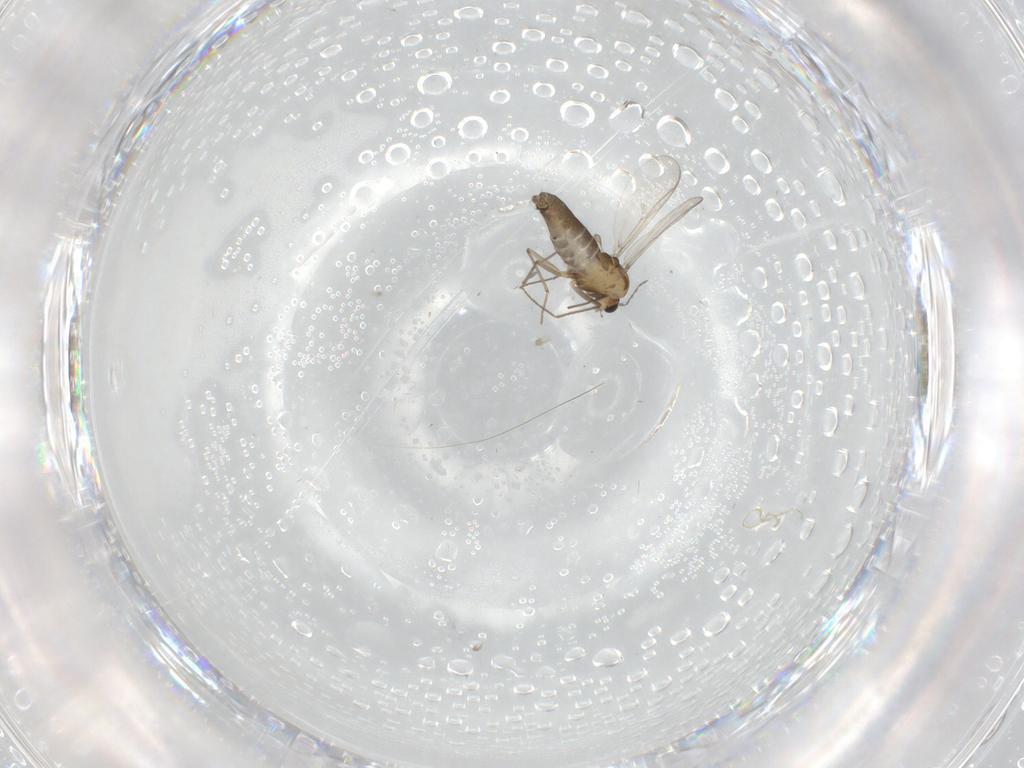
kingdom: Animalia
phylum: Arthropoda
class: Insecta
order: Diptera
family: Chironomidae
